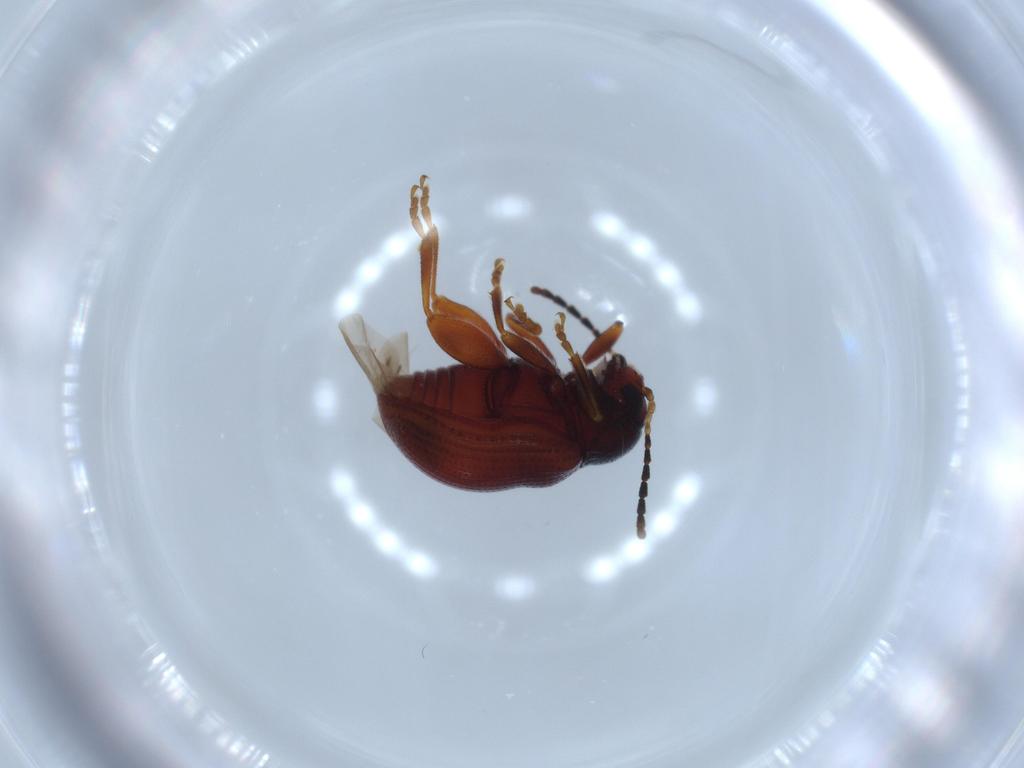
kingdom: Animalia
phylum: Arthropoda
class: Insecta
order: Coleoptera
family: Chrysomelidae
